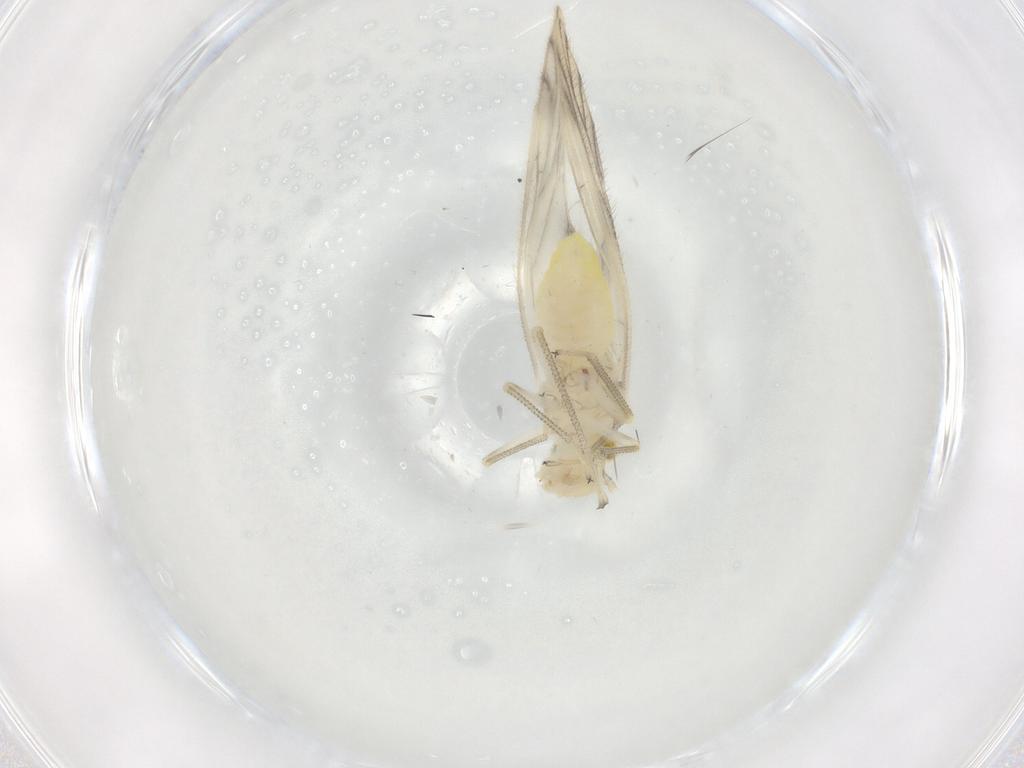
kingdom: Animalia
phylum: Arthropoda
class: Insecta
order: Psocodea
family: Caeciliusidae
